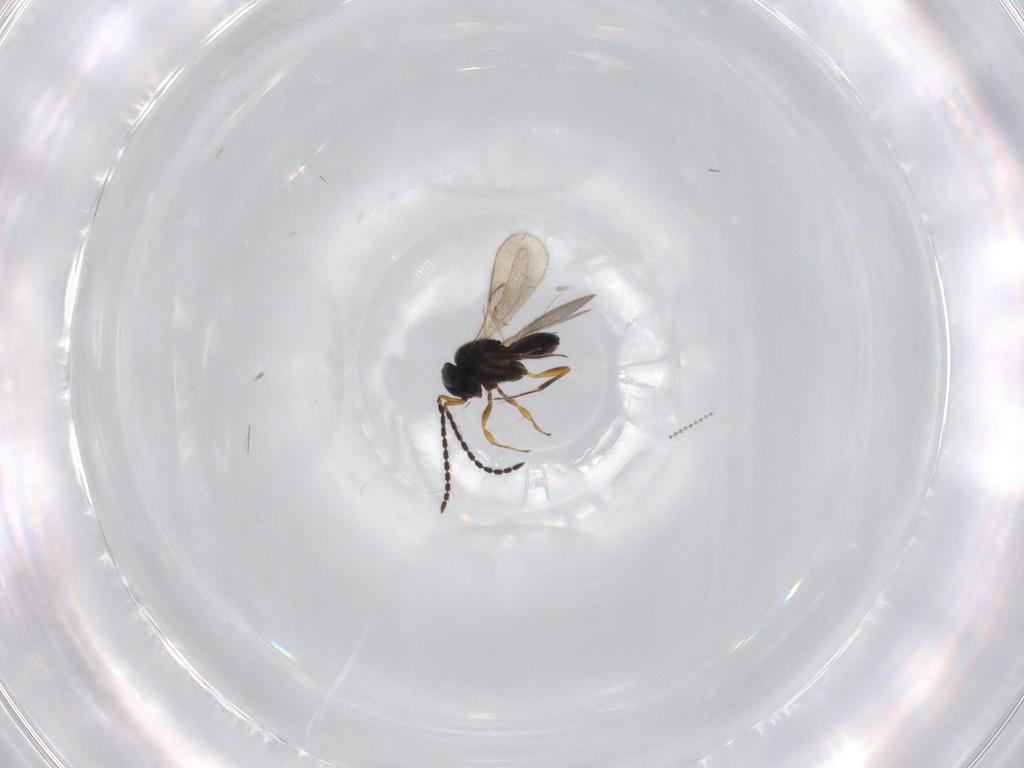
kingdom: Animalia
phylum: Arthropoda
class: Insecta
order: Hymenoptera
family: Scelionidae
